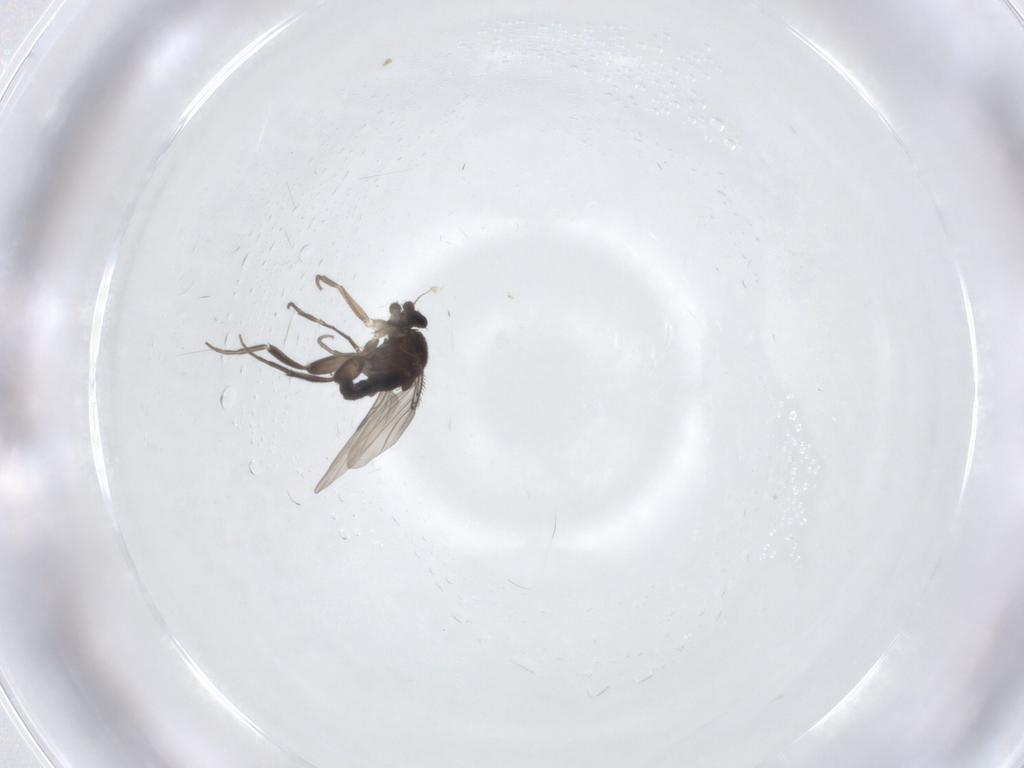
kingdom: Animalia
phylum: Arthropoda
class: Insecta
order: Diptera
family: Phoridae
